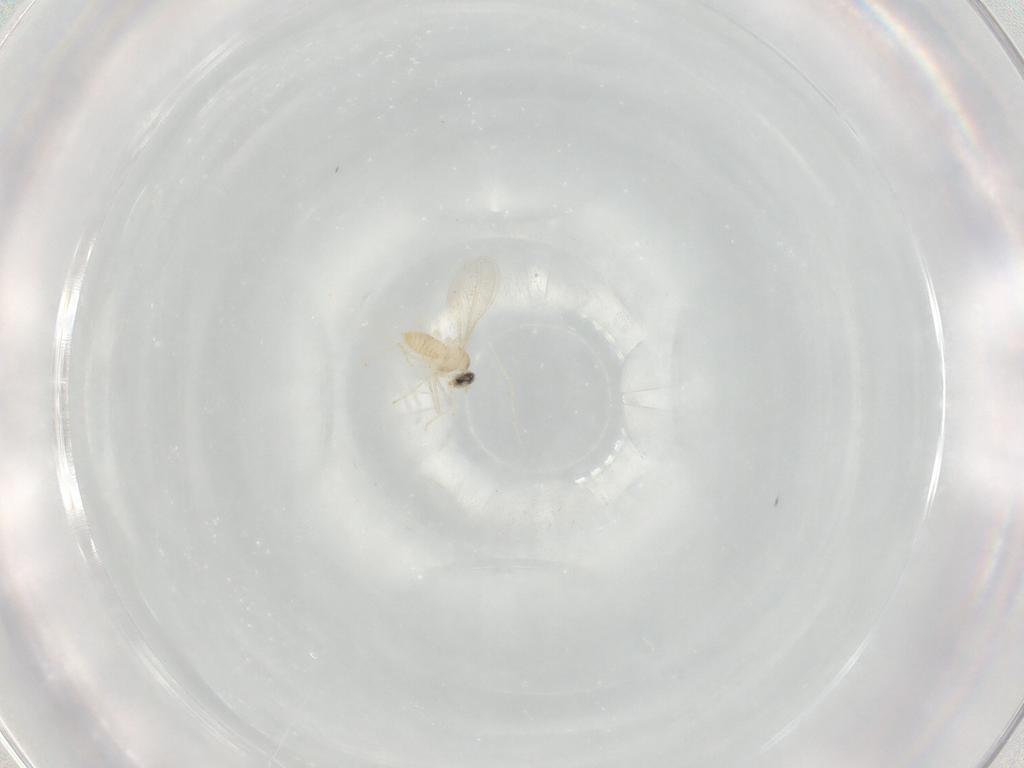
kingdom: Animalia
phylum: Arthropoda
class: Insecta
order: Diptera
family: Cecidomyiidae
